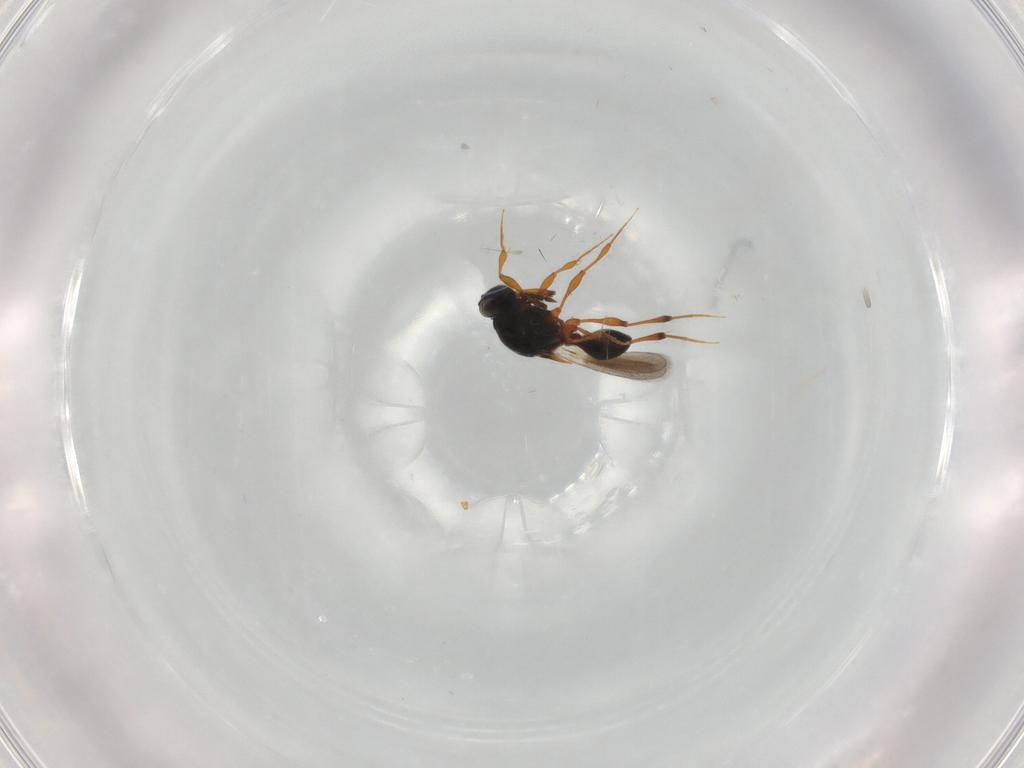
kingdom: Animalia
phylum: Arthropoda
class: Insecta
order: Hymenoptera
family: Platygastridae
